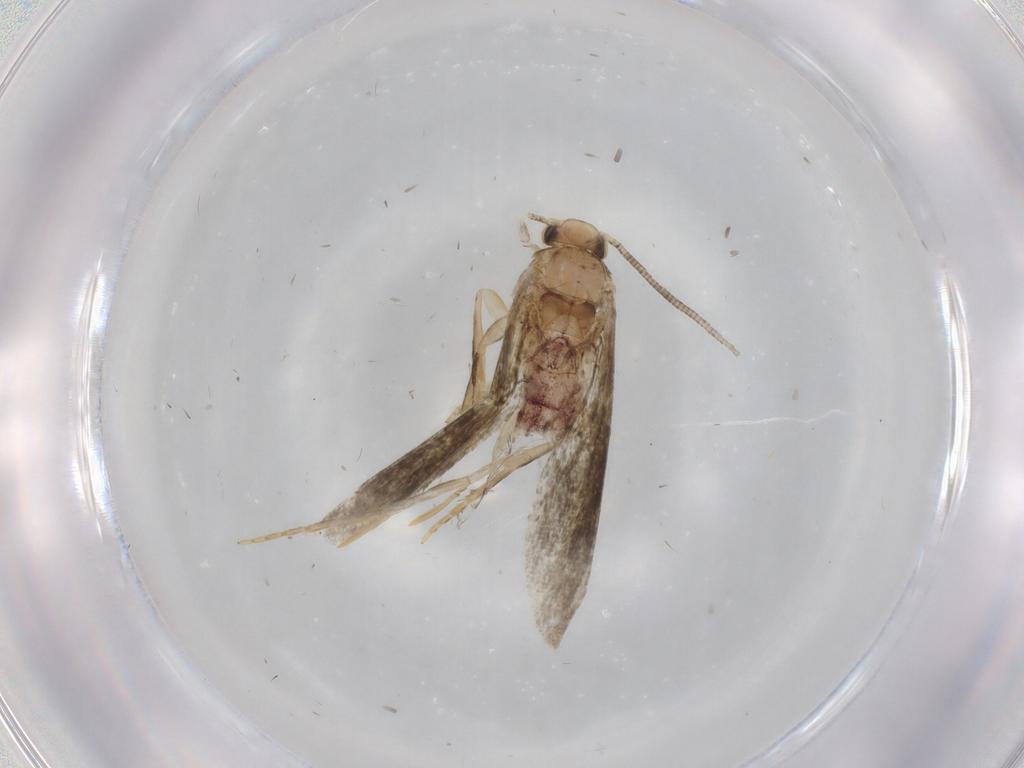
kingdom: Animalia
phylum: Arthropoda
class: Insecta
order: Lepidoptera
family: Dryadaulidae
